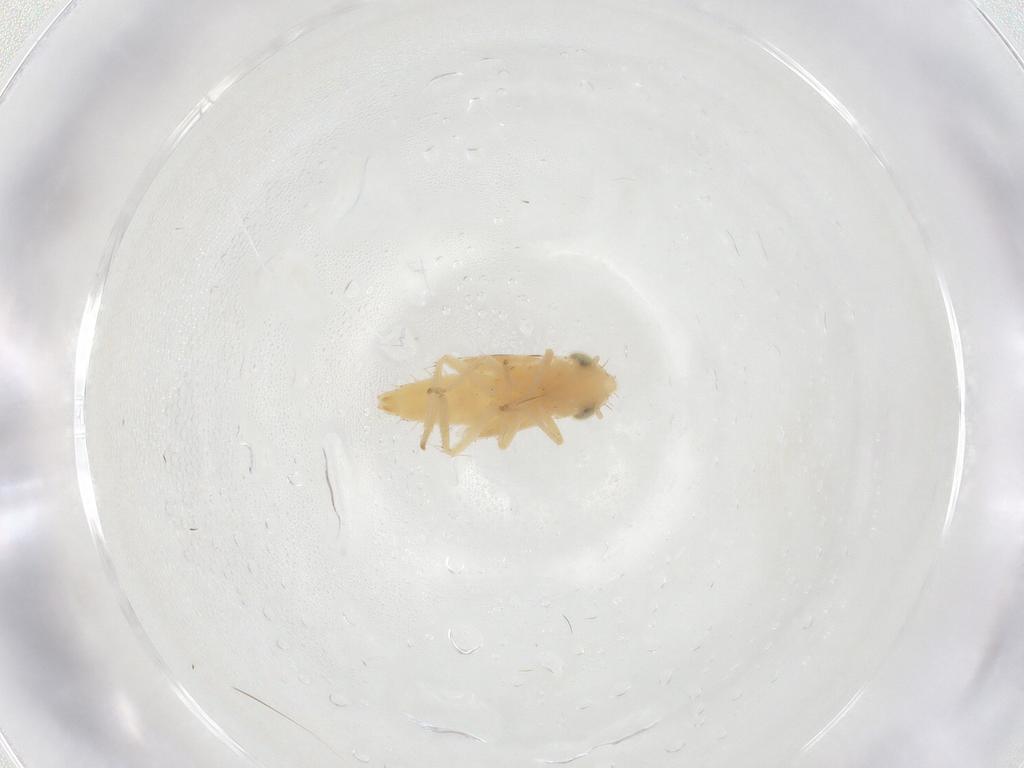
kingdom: Animalia
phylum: Arthropoda
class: Insecta
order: Hemiptera
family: Cicadellidae
